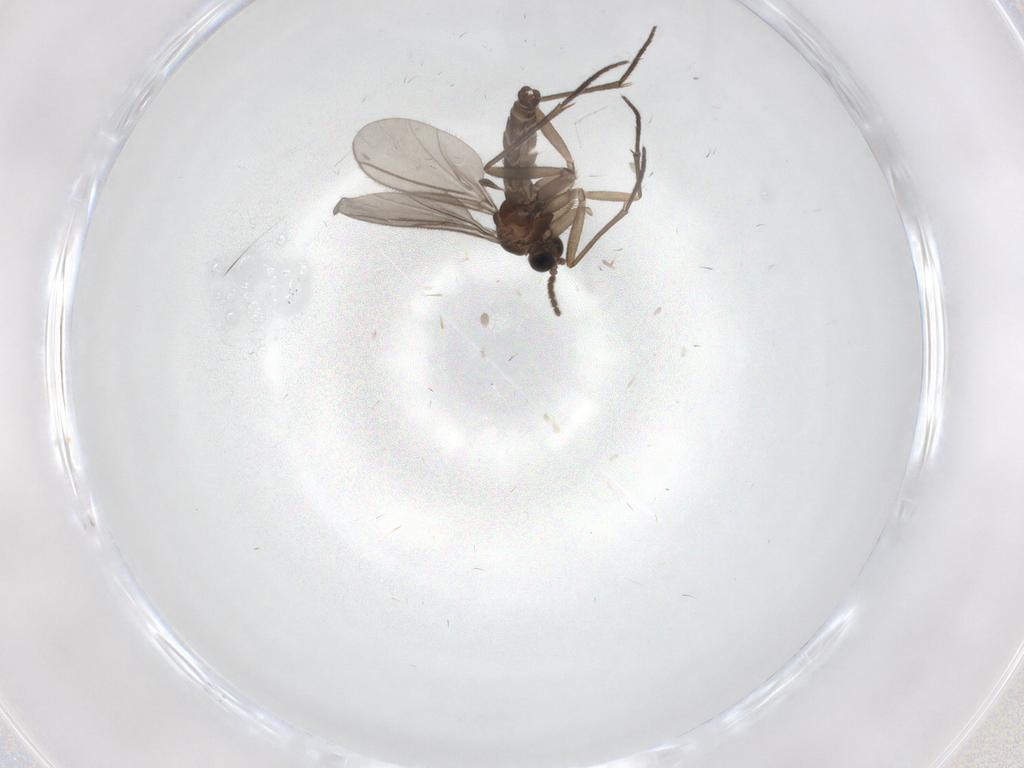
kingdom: Animalia
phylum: Arthropoda
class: Insecta
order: Diptera
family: Sciaridae
